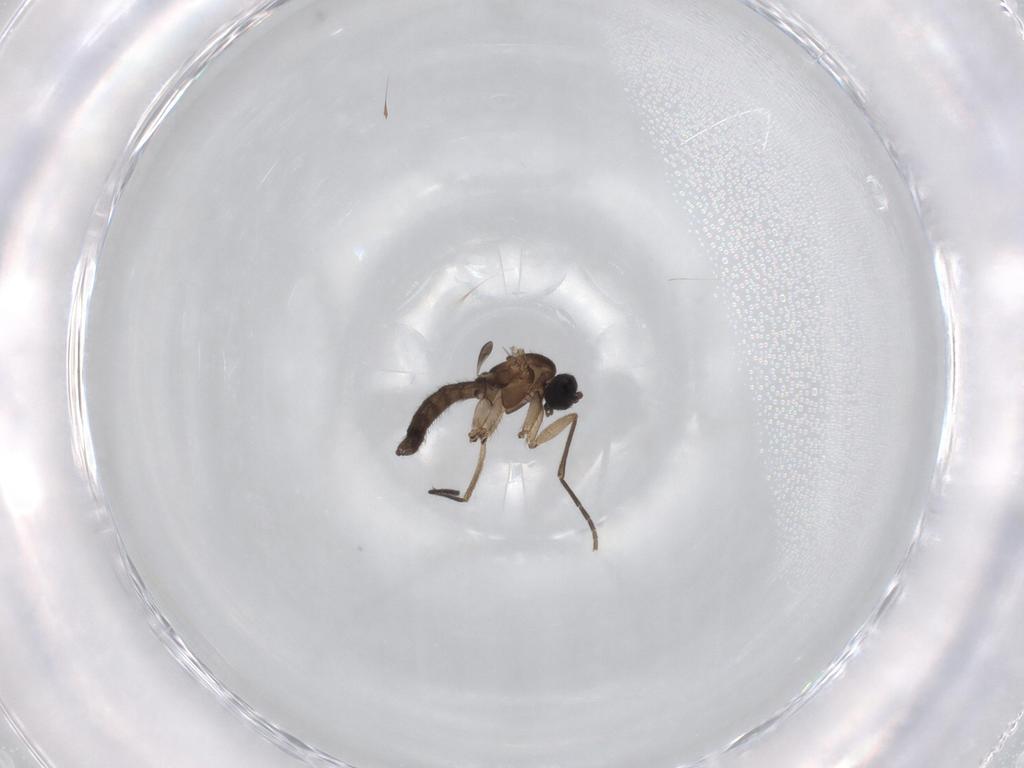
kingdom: Animalia
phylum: Arthropoda
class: Insecta
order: Diptera
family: Sciaridae
